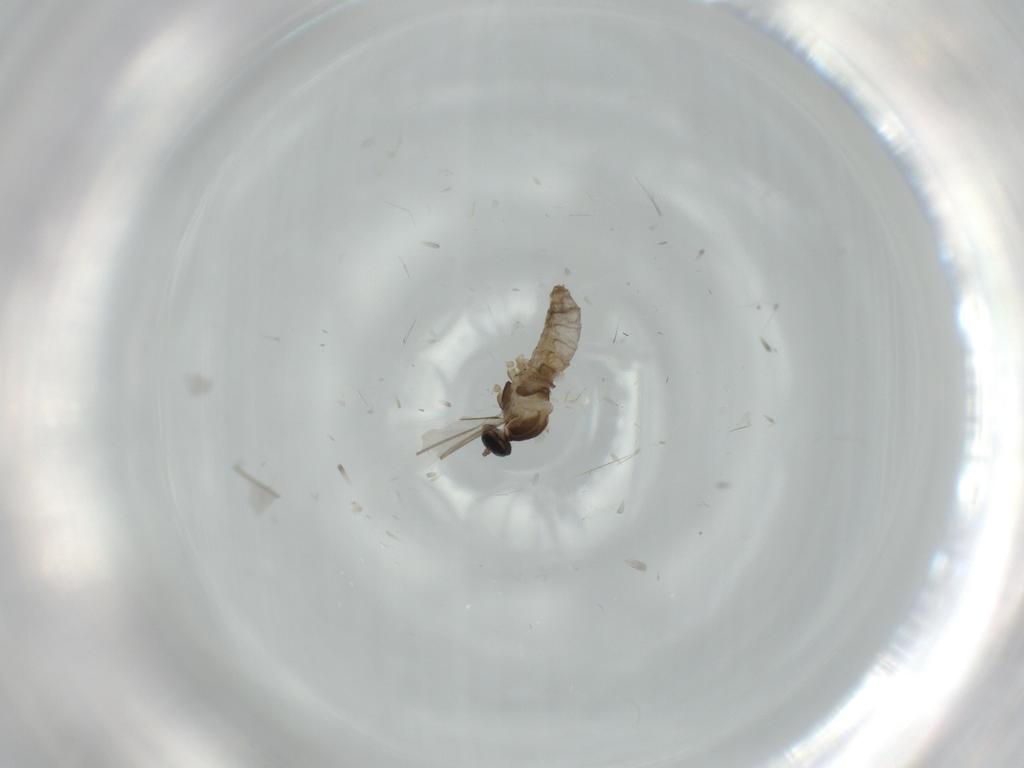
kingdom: Animalia
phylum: Arthropoda
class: Insecta
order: Diptera
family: Cecidomyiidae
